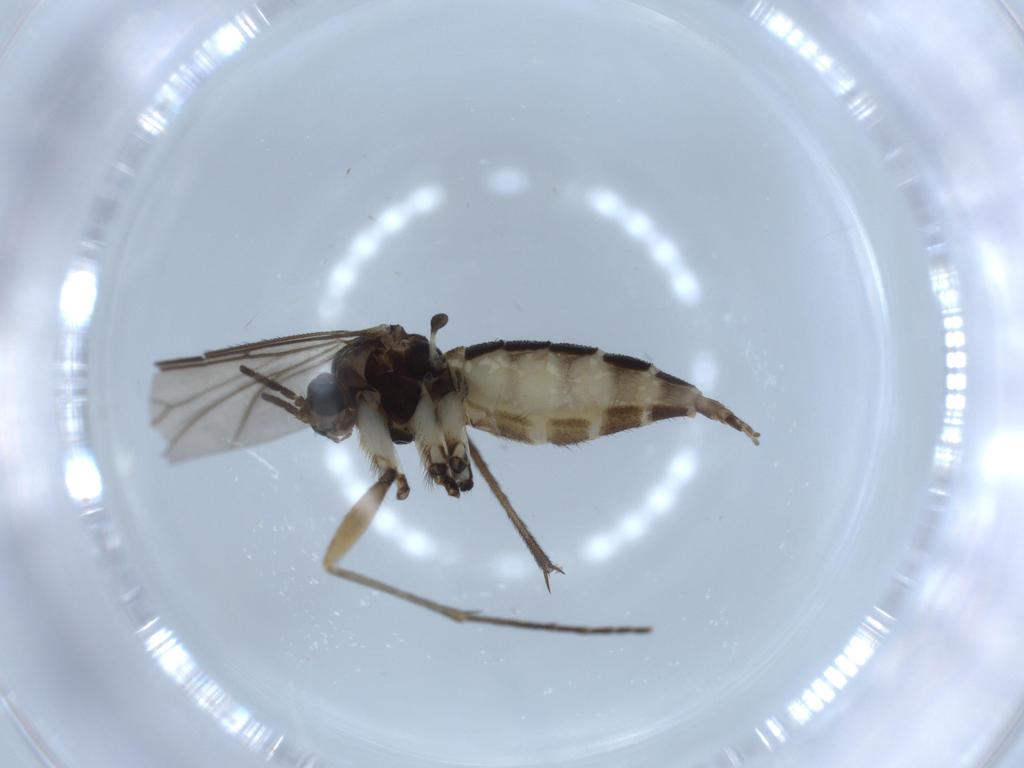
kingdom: Animalia
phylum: Arthropoda
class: Insecta
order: Diptera
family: Sciaridae
